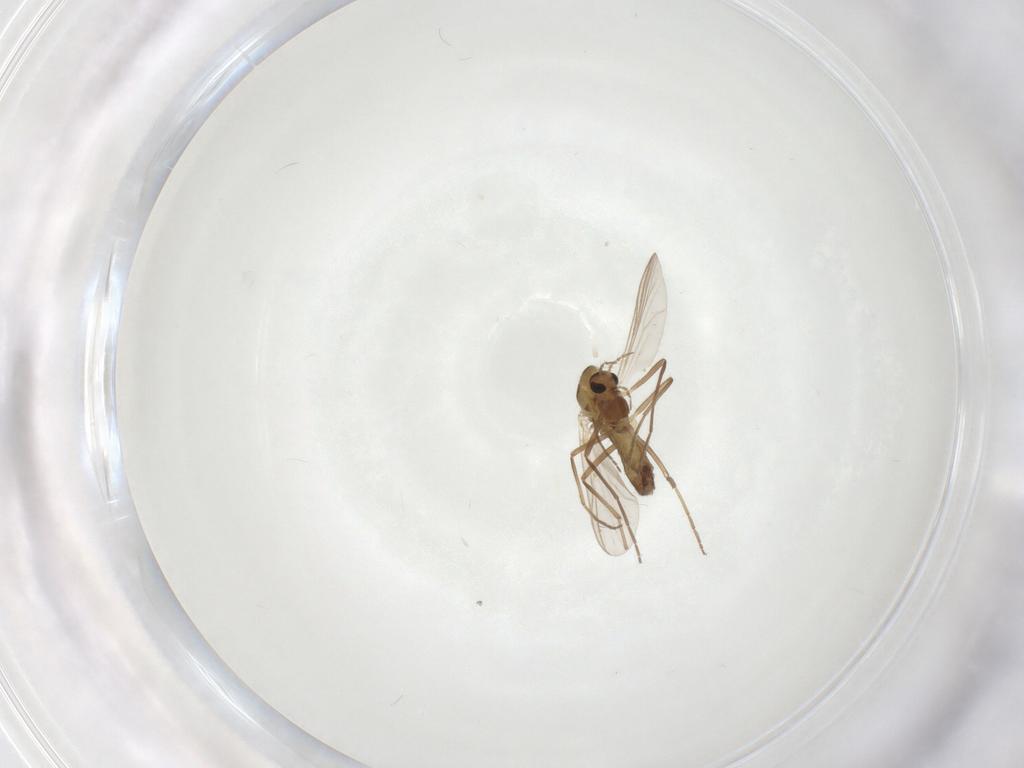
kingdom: Animalia
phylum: Arthropoda
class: Insecta
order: Diptera
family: Chironomidae
